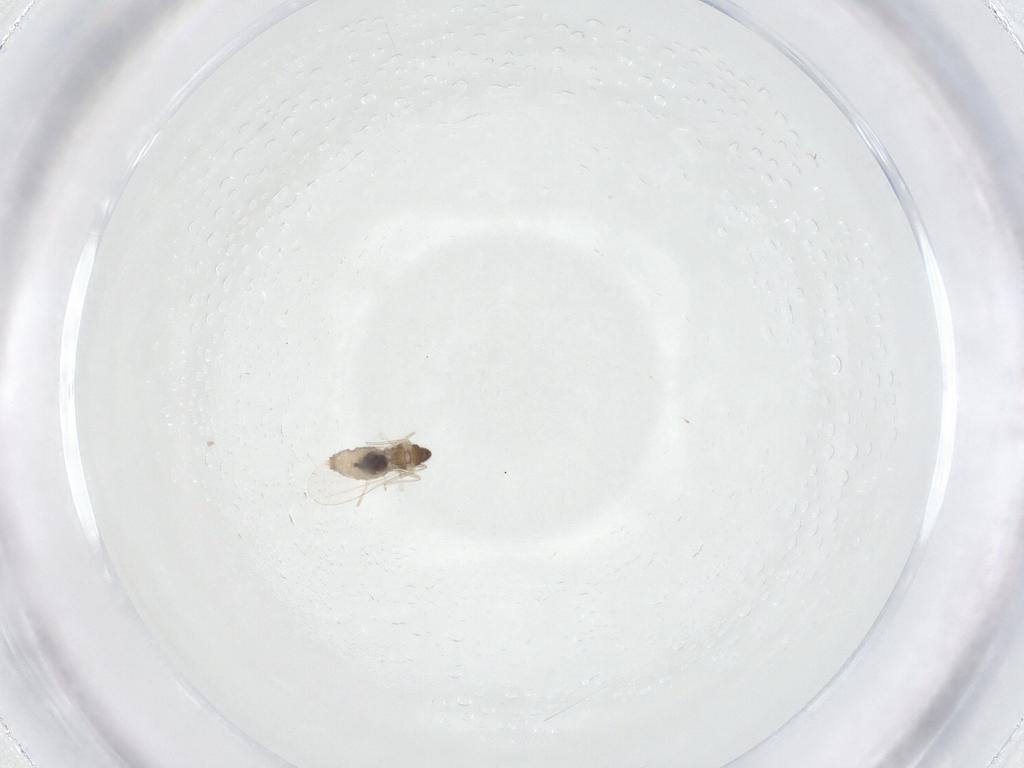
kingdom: Animalia
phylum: Arthropoda
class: Insecta
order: Diptera
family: Cecidomyiidae
